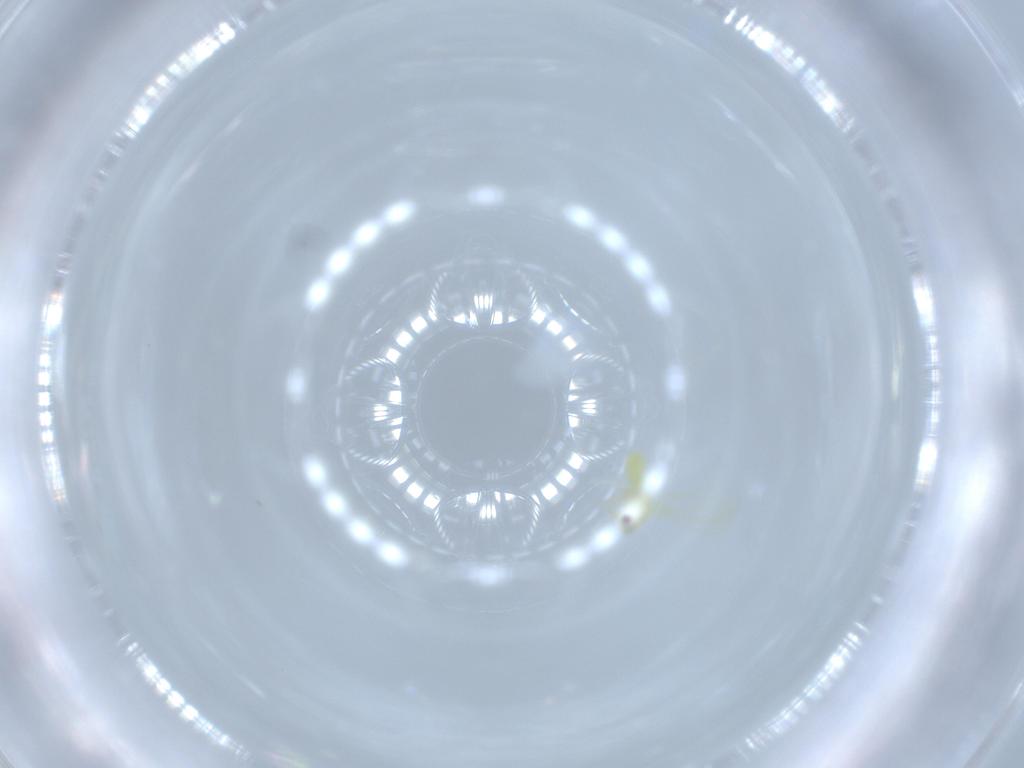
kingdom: Animalia
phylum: Arthropoda
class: Insecta
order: Hemiptera
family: Aleyrodidae
